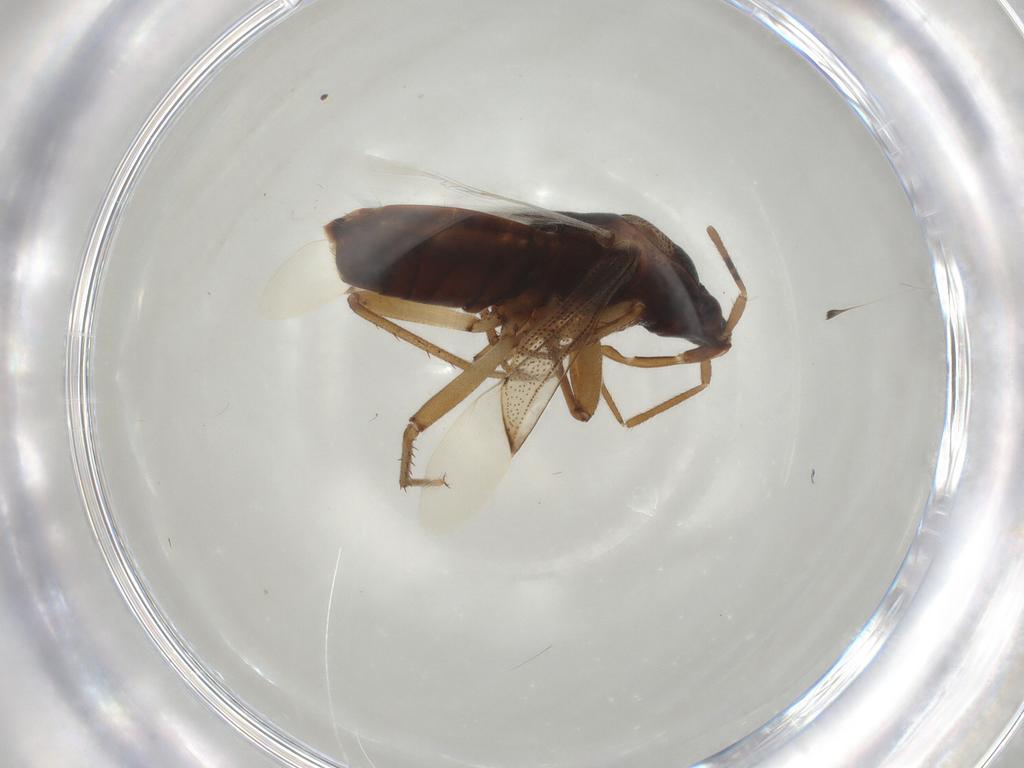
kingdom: Animalia
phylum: Arthropoda
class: Insecta
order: Hemiptera
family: Rhyparochromidae
